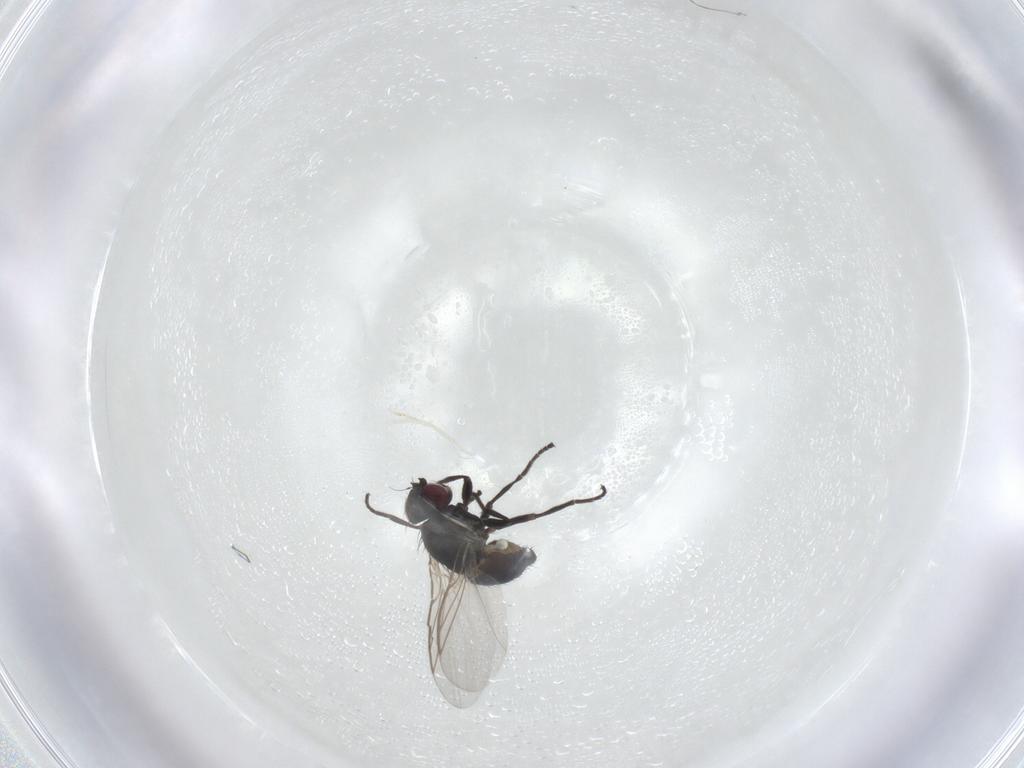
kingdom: Animalia
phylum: Arthropoda
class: Insecta
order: Diptera
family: Agromyzidae
